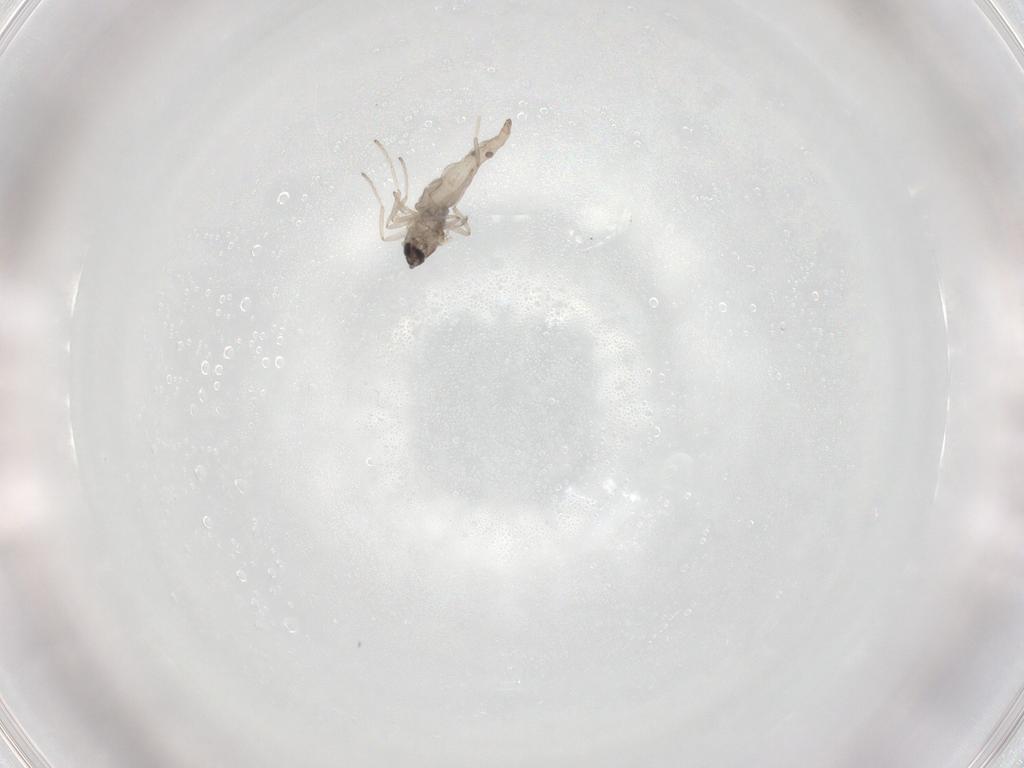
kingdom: Animalia
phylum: Arthropoda
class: Insecta
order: Diptera
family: Cecidomyiidae
